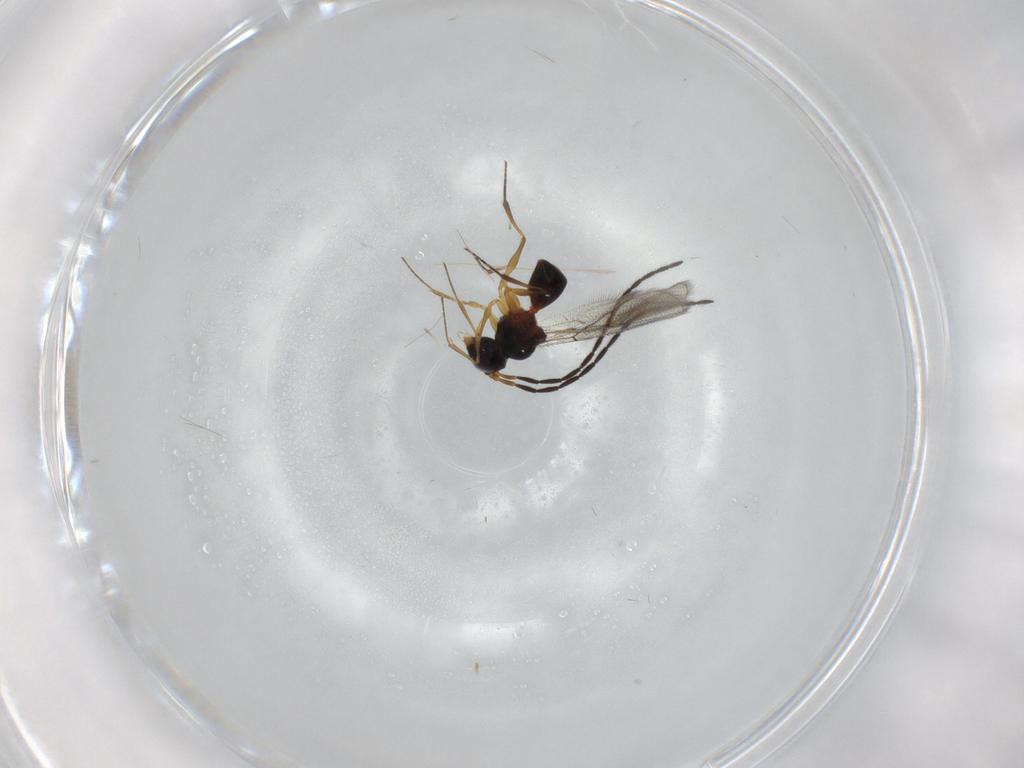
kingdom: Animalia
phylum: Arthropoda
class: Insecta
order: Hymenoptera
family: Figitidae
